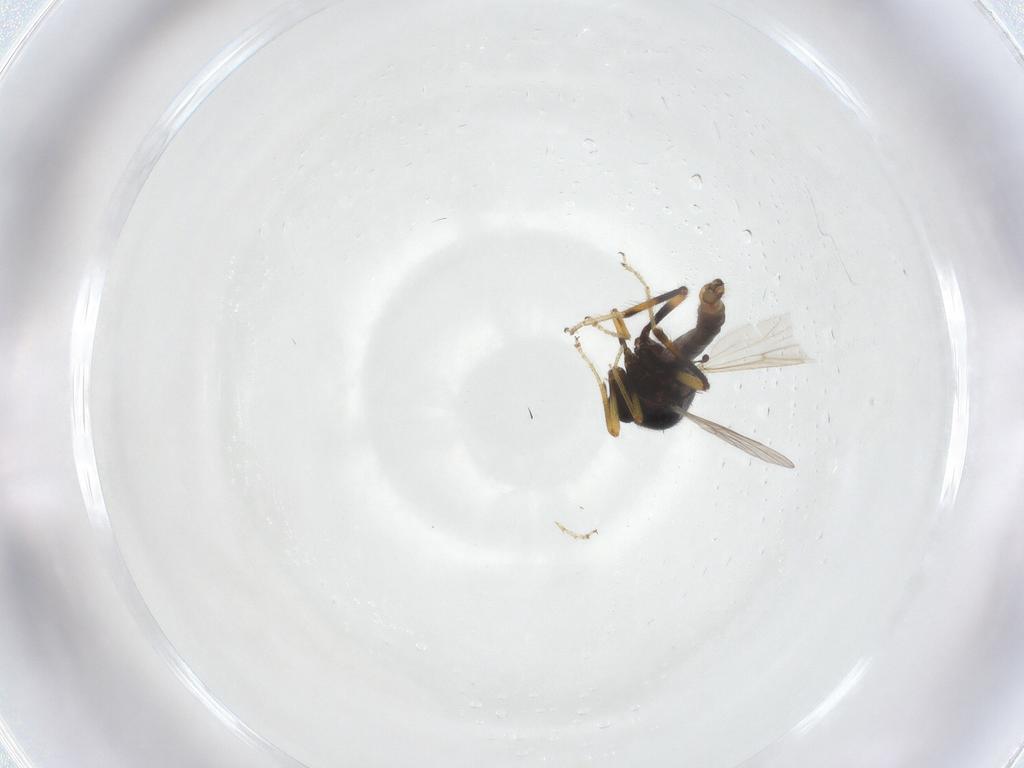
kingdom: Animalia
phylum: Arthropoda
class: Insecta
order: Diptera
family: Ceratopogonidae
